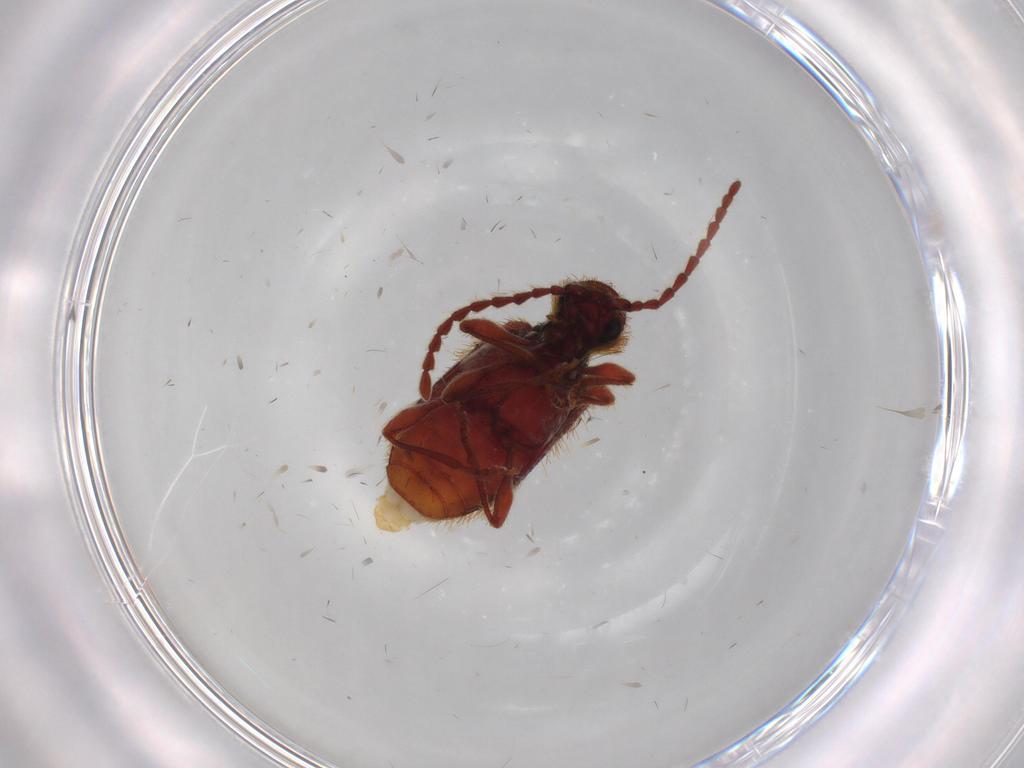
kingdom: Animalia
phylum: Arthropoda
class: Insecta
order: Coleoptera
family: Ptinidae
